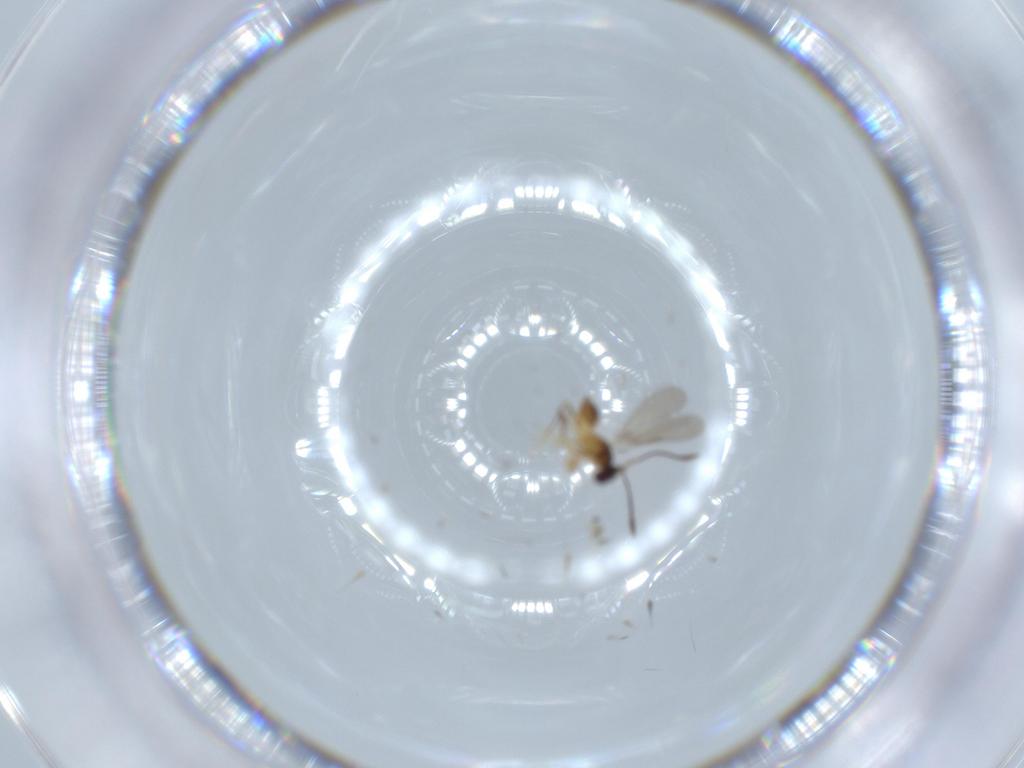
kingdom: Animalia
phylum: Arthropoda
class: Insecta
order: Hymenoptera
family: Mymaridae
